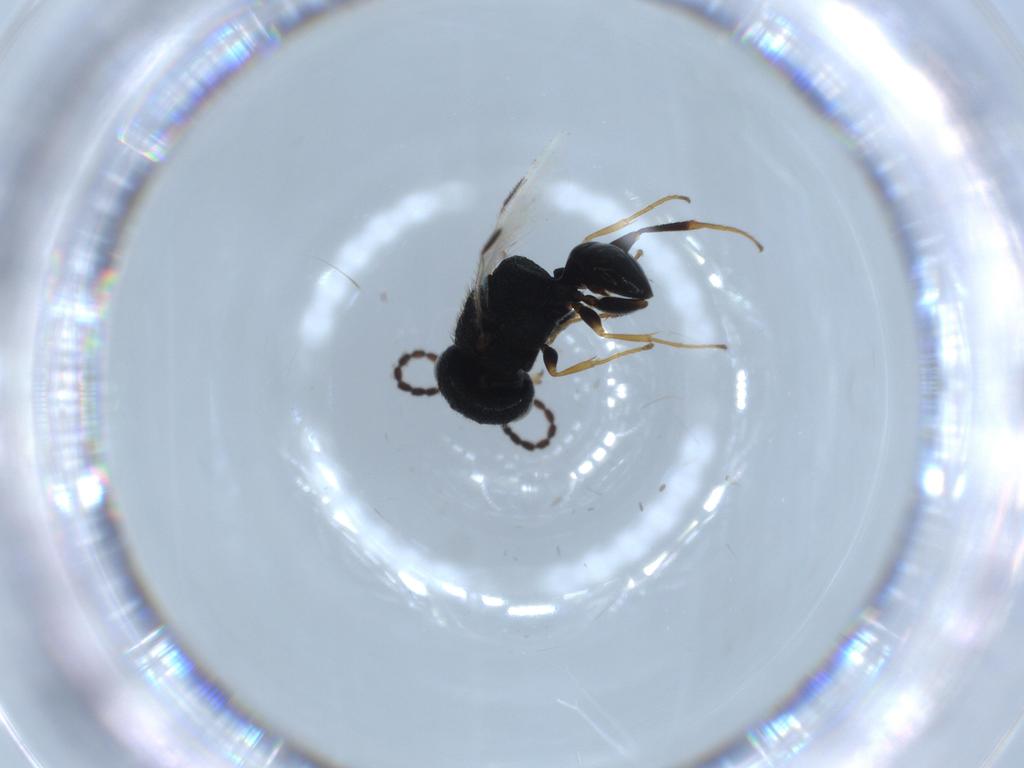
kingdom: Animalia
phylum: Arthropoda
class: Insecta
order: Hymenoptera
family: Dryinidae
